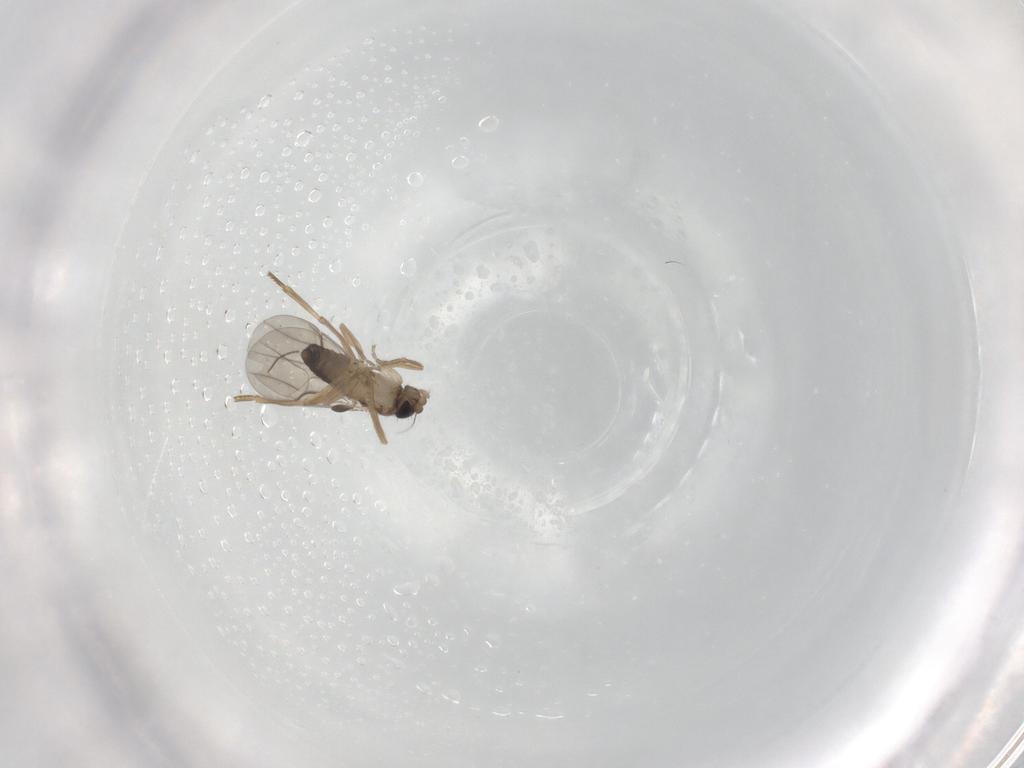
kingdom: Animalia
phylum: Arthropoda
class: Insecta
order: Diptera
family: Phoridae
